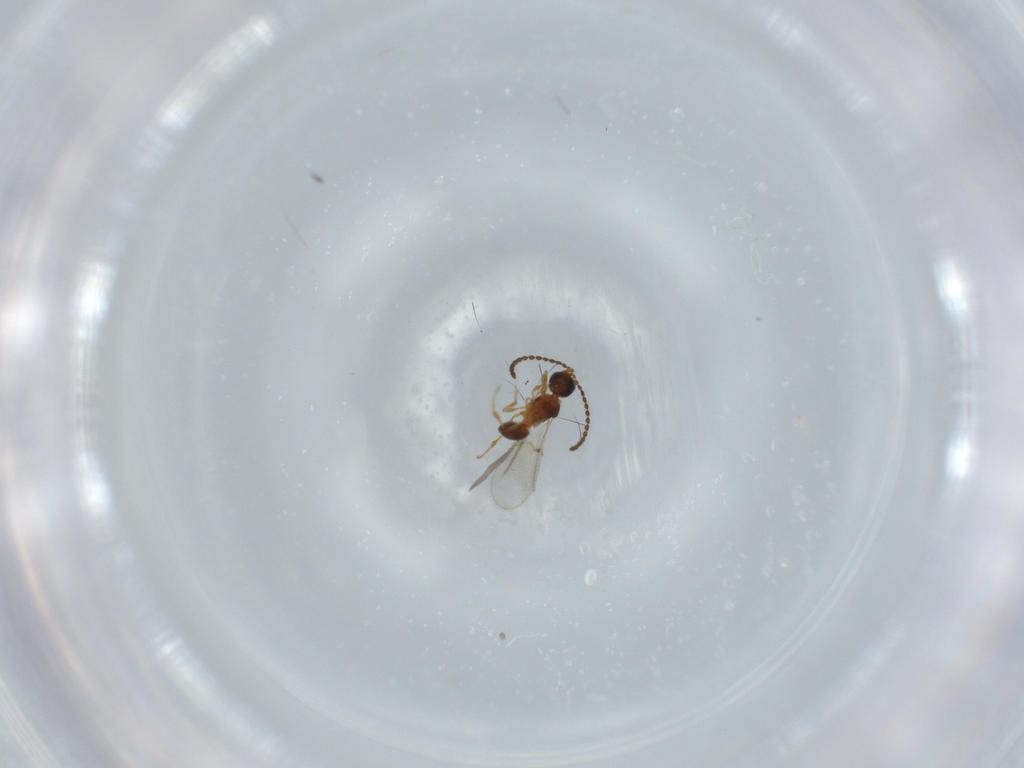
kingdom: Animalia
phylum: Arthropoda
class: Insecta
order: Hymenoptera
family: Diapriidae
